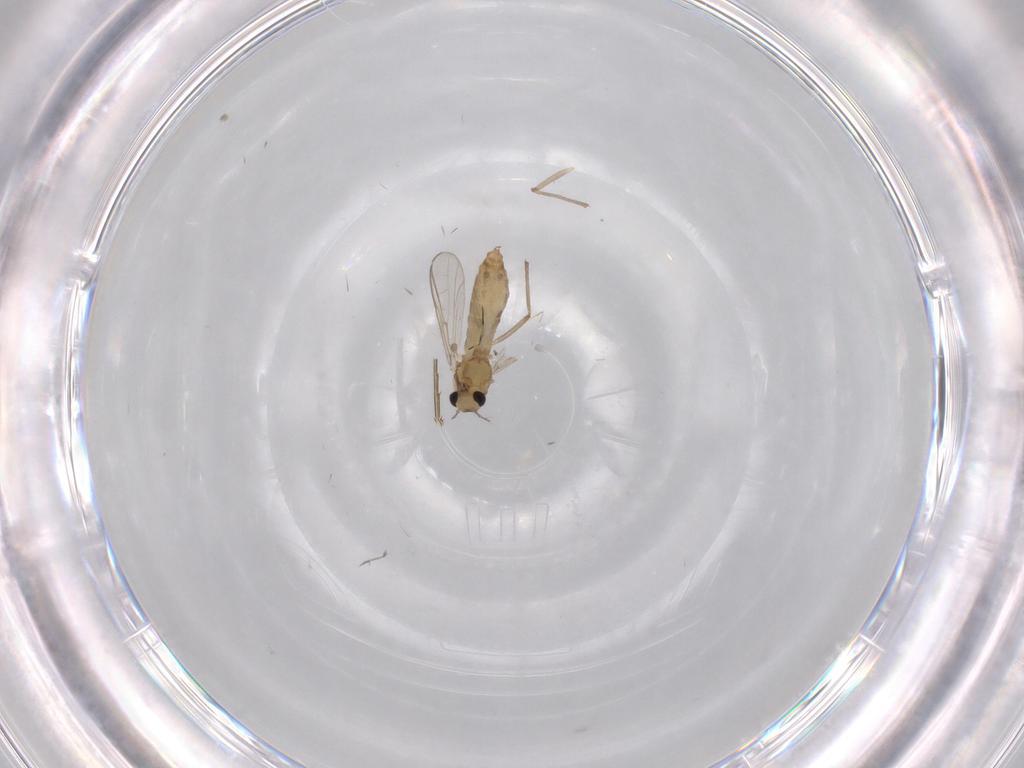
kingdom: Animalia
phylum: Arthropoda
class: Insecta
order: Diptera
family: Chironomidae
